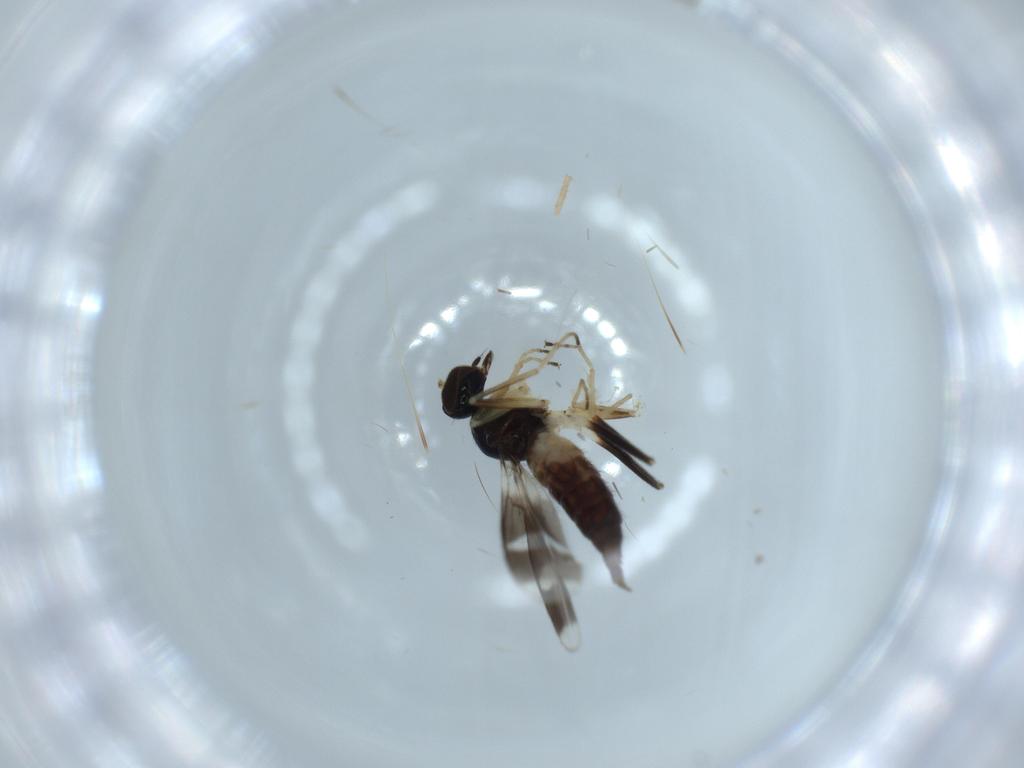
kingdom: Animalia
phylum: Arthropoda
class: Insecta
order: Diptera
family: Hybotidae
